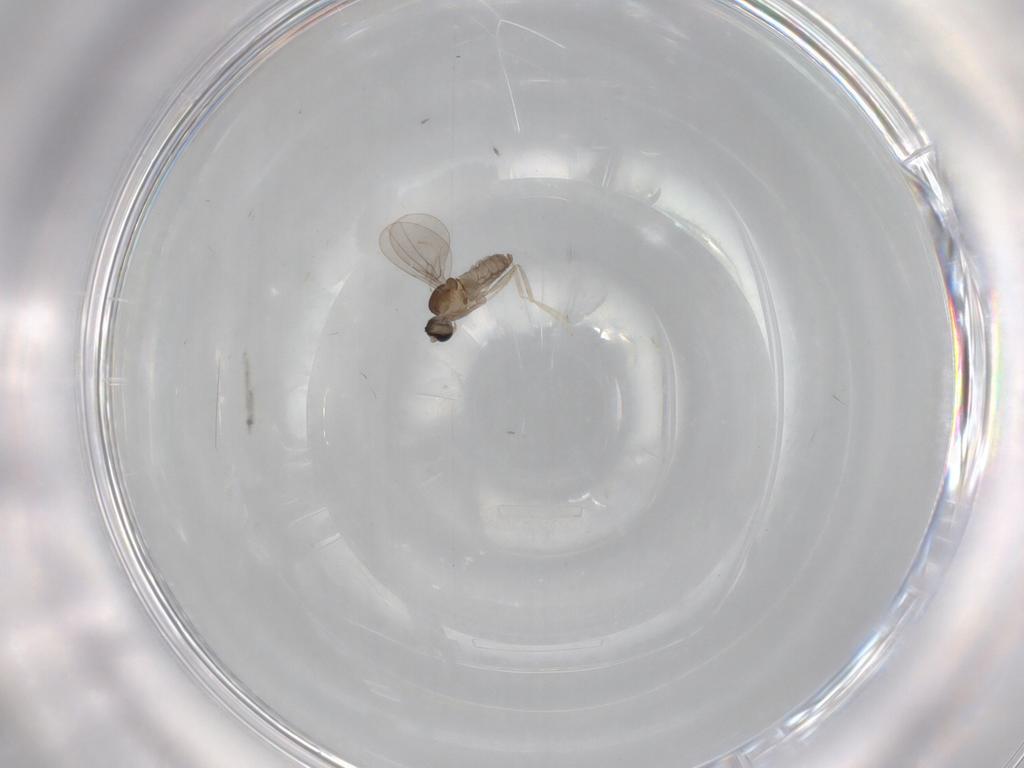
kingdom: Animalia
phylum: Arthropoda
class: Insecta
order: Diptera
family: Cecidomyiidae
